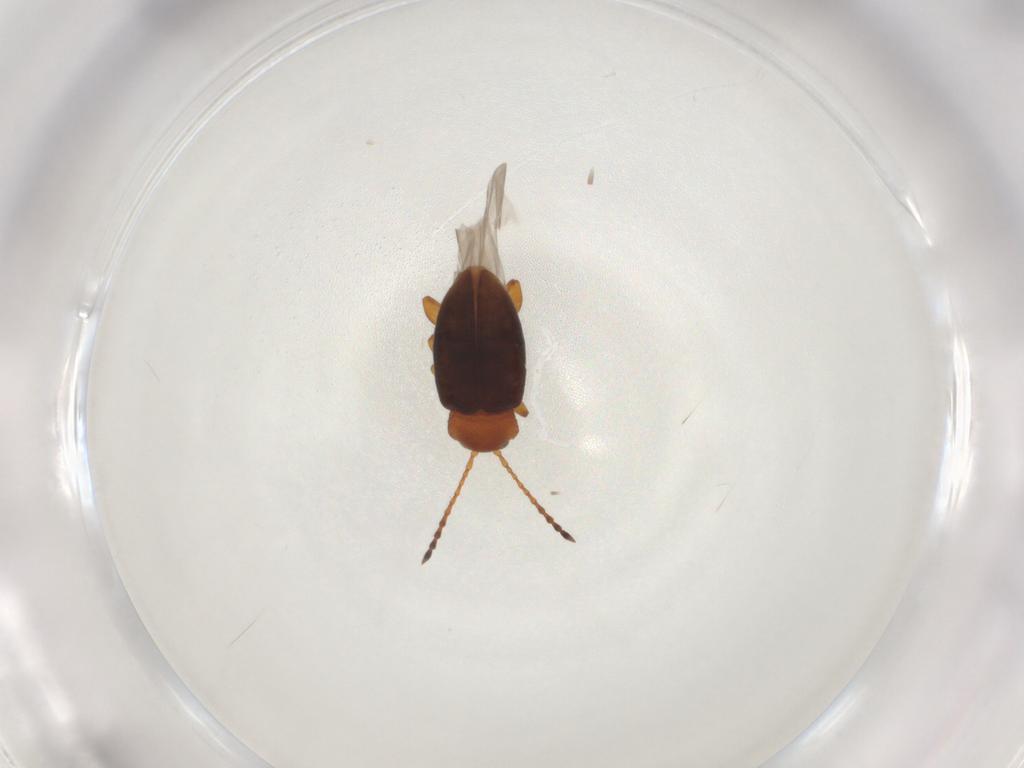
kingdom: Animalia
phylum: Arthropoda
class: Insecta
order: Coleoptera
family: Chrysomelidae
